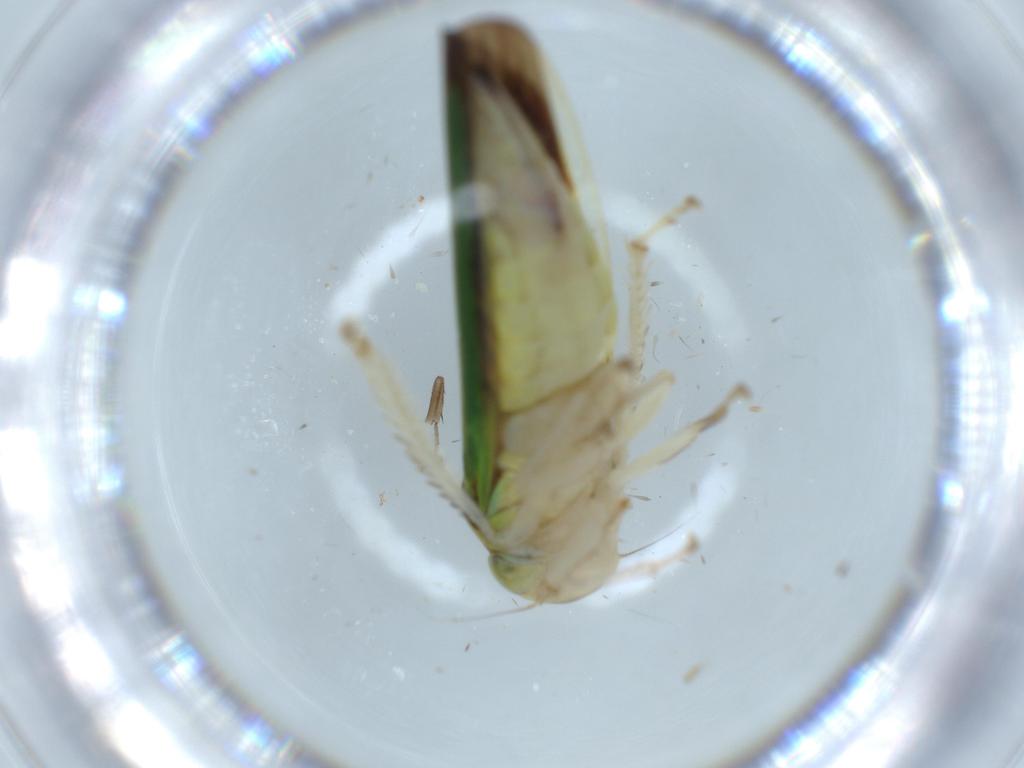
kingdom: Animalia
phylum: Arthropoda
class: Insecta
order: Hemiptera
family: Cicadellidae
